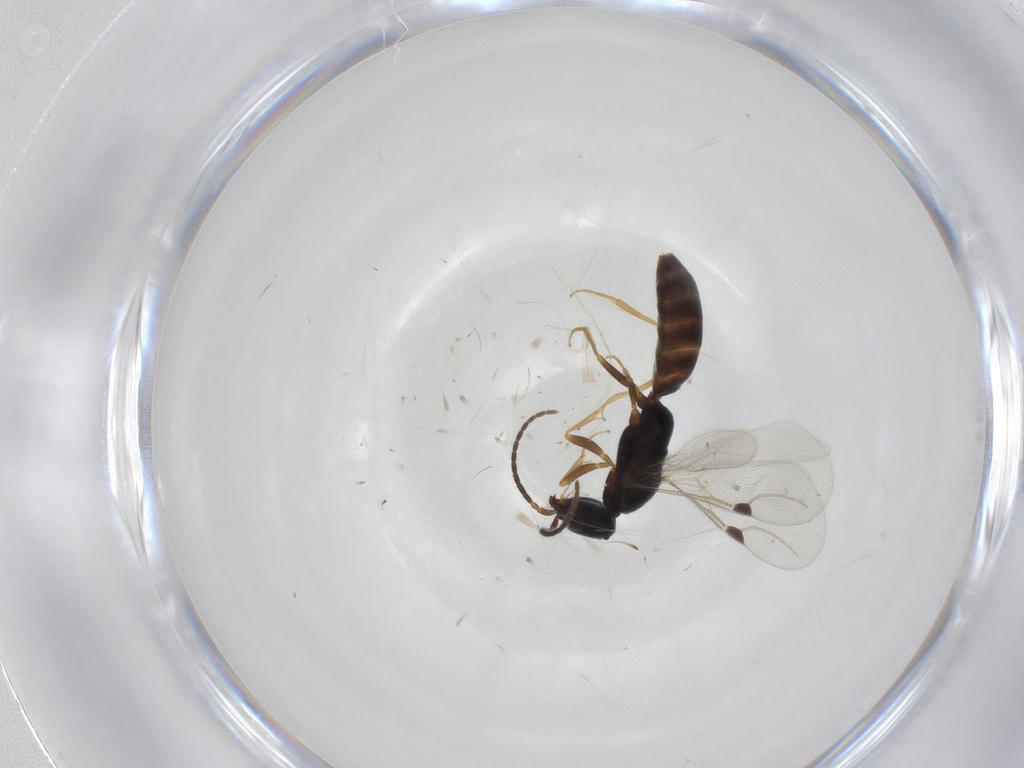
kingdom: Animalia
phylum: Arthropoda
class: Insecta
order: Hymenoptera
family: Bethylidae
